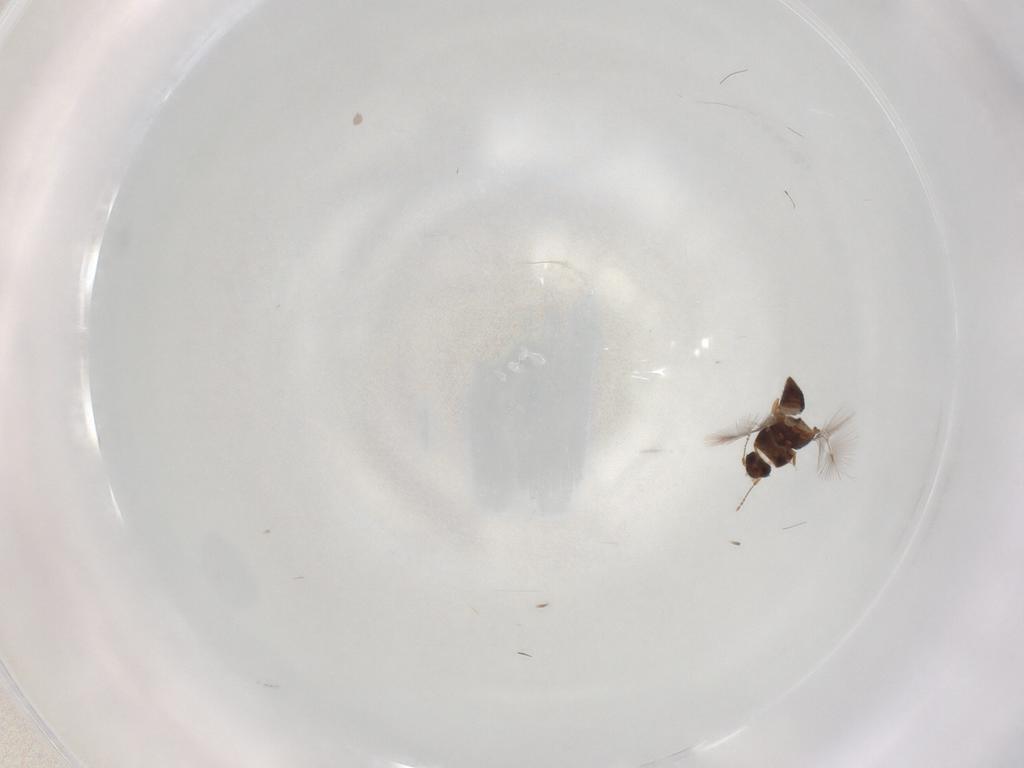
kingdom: Animalia
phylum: Arthropoda
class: Insecta
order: Coleoptera
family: Ptiliidae
